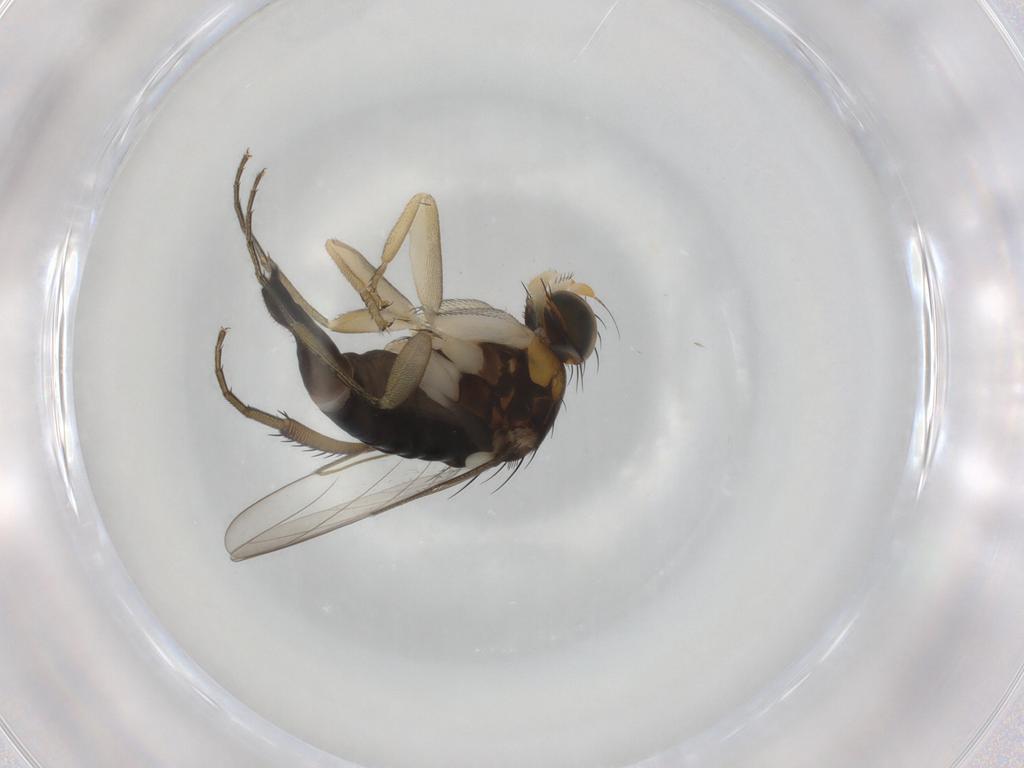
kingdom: Animalia
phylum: Arthropoda
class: Insecta
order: Diptera
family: Phoridae
